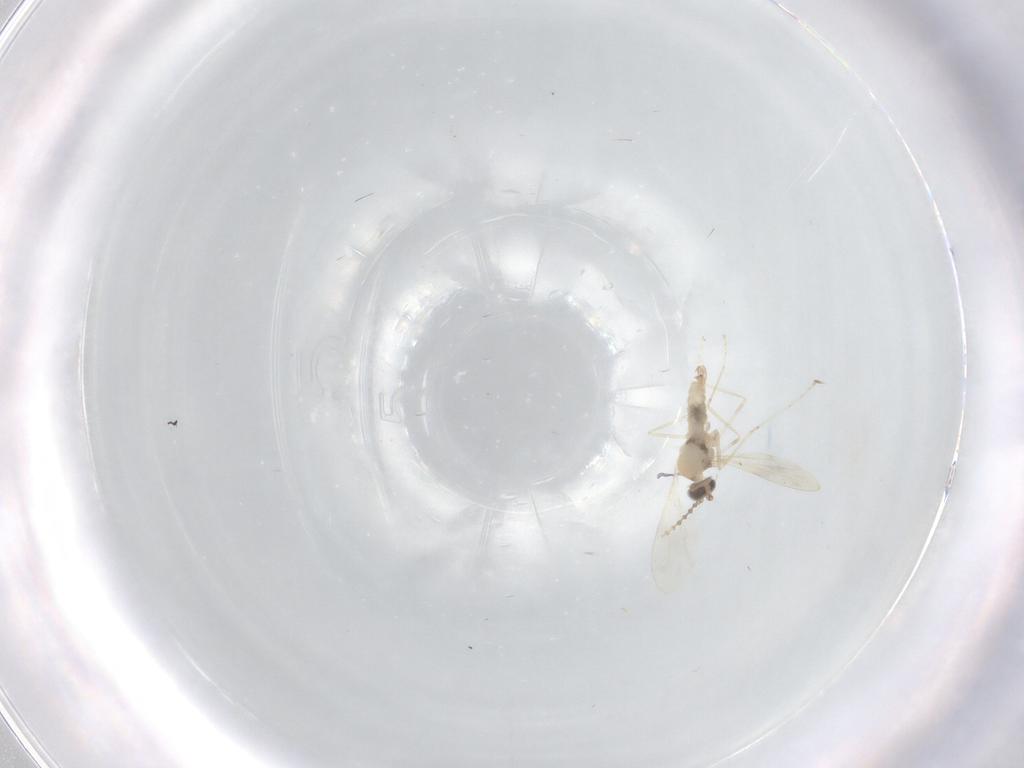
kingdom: Animalia
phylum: Arthropoda
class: Insecta
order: Diptera
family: Cecidomyiidae
